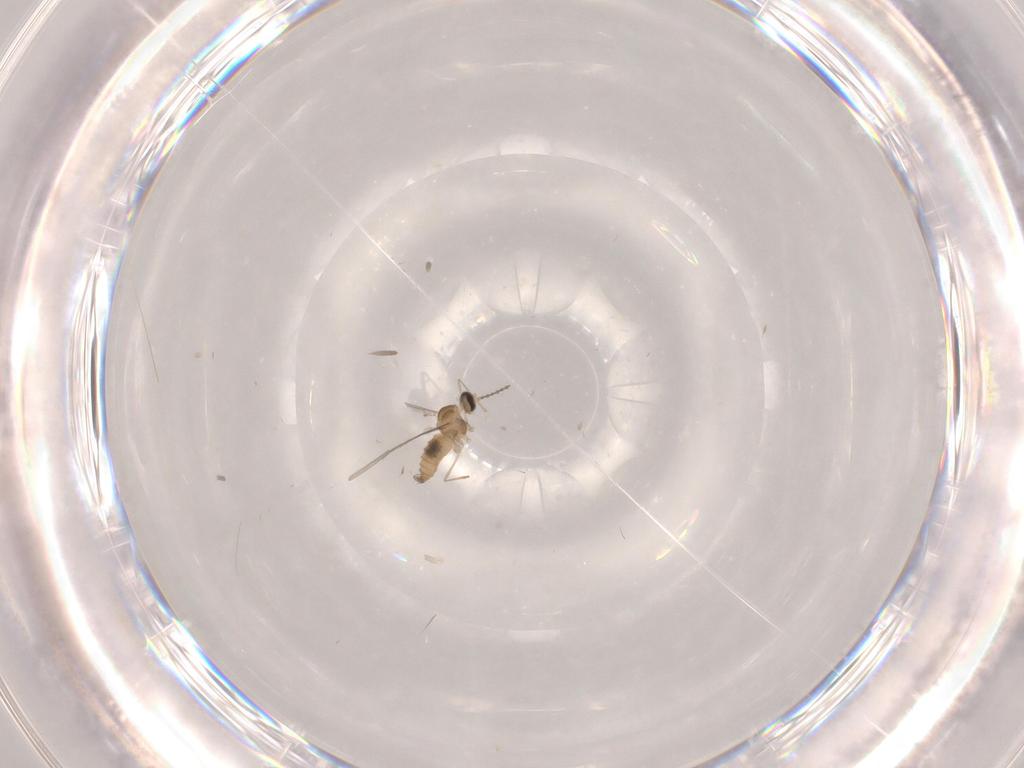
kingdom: Animalia
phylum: Arthropoda
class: Insecta
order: Diptera
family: Cecidomyiidae
